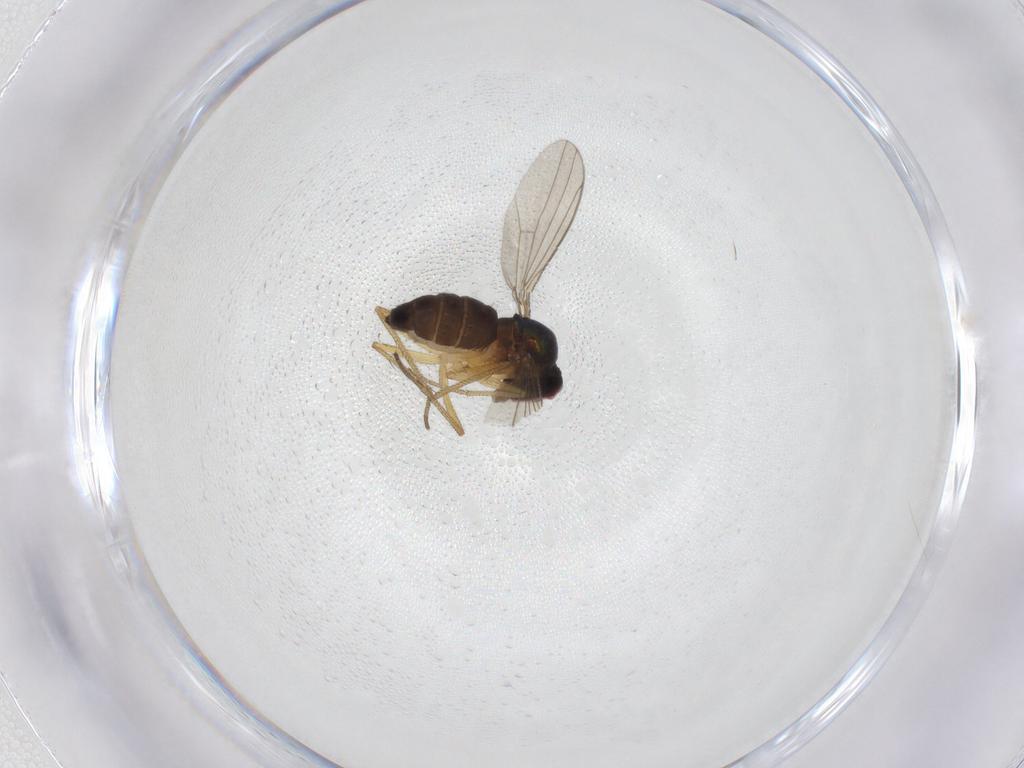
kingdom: Animalia
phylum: Arthropoda
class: Insecta
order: Diptera
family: Dolichopodidae
